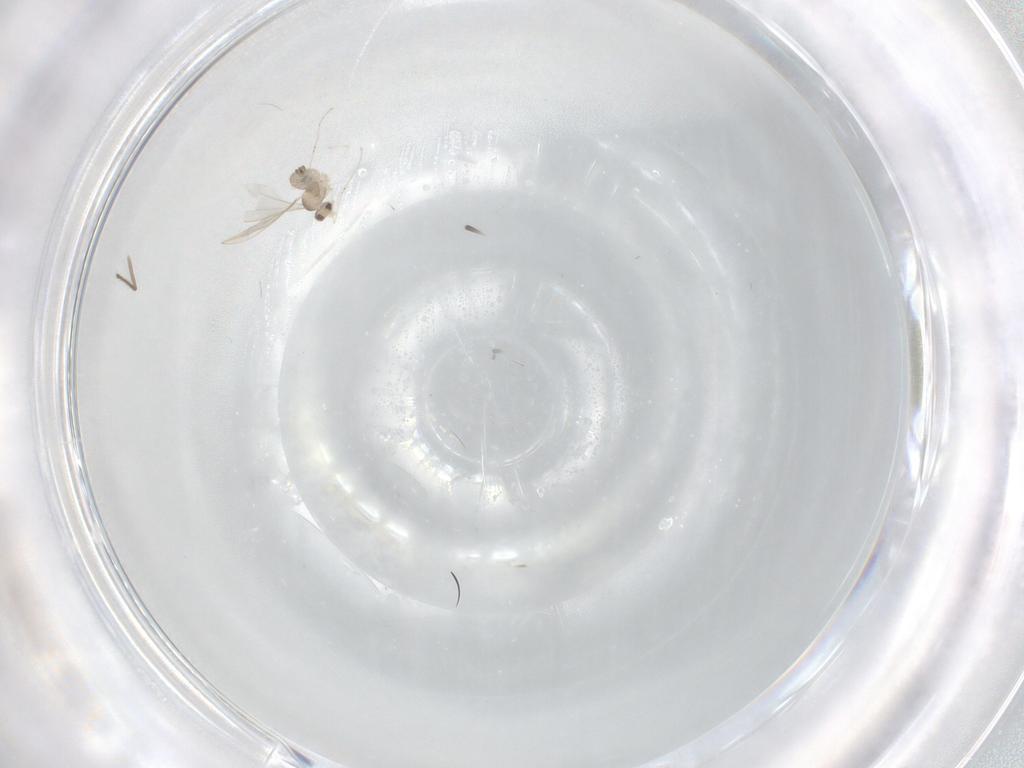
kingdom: Animalia
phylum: Arthropoda
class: Insecta
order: Diptera
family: Cecidomyiidae
